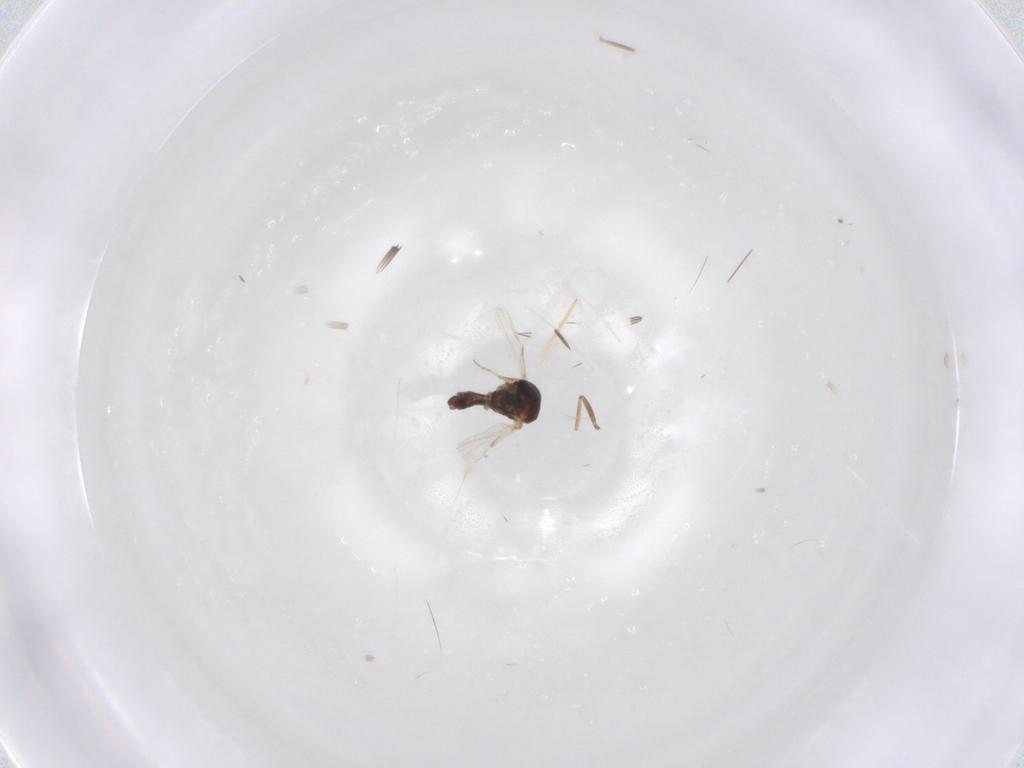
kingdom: Animalia
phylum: Arthropoda
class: Insecta
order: Diptera
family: Ceratopogonidae
